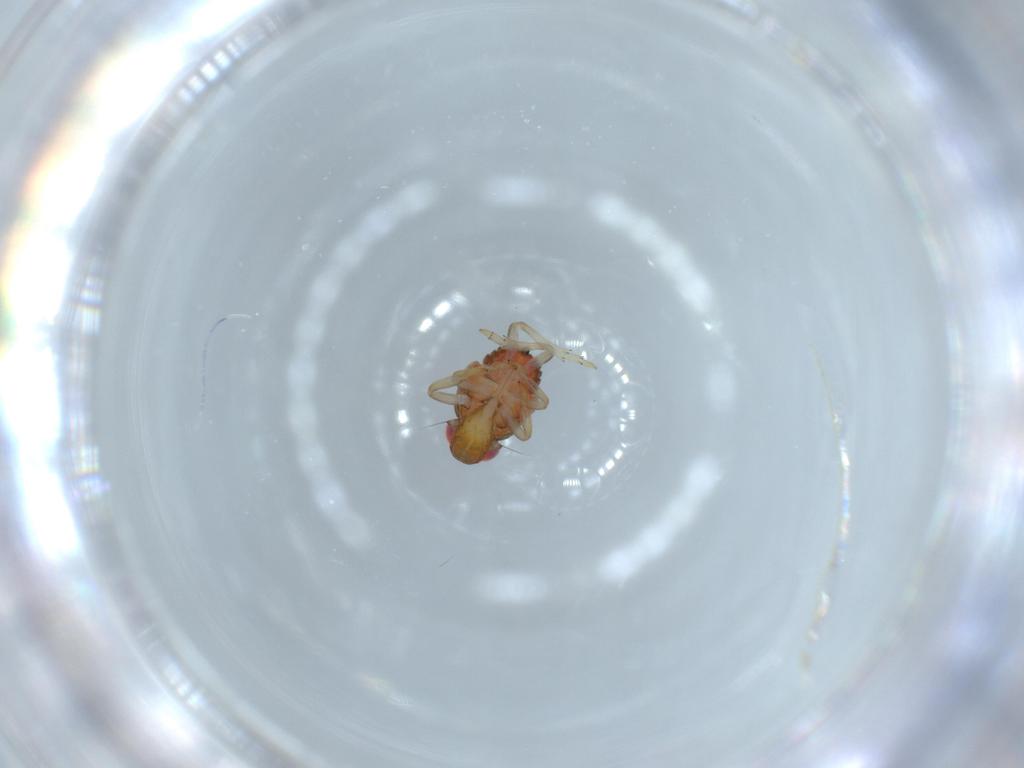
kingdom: Animalia
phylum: Arthropoda
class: Insecta
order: Hemiptera
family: Issidae
